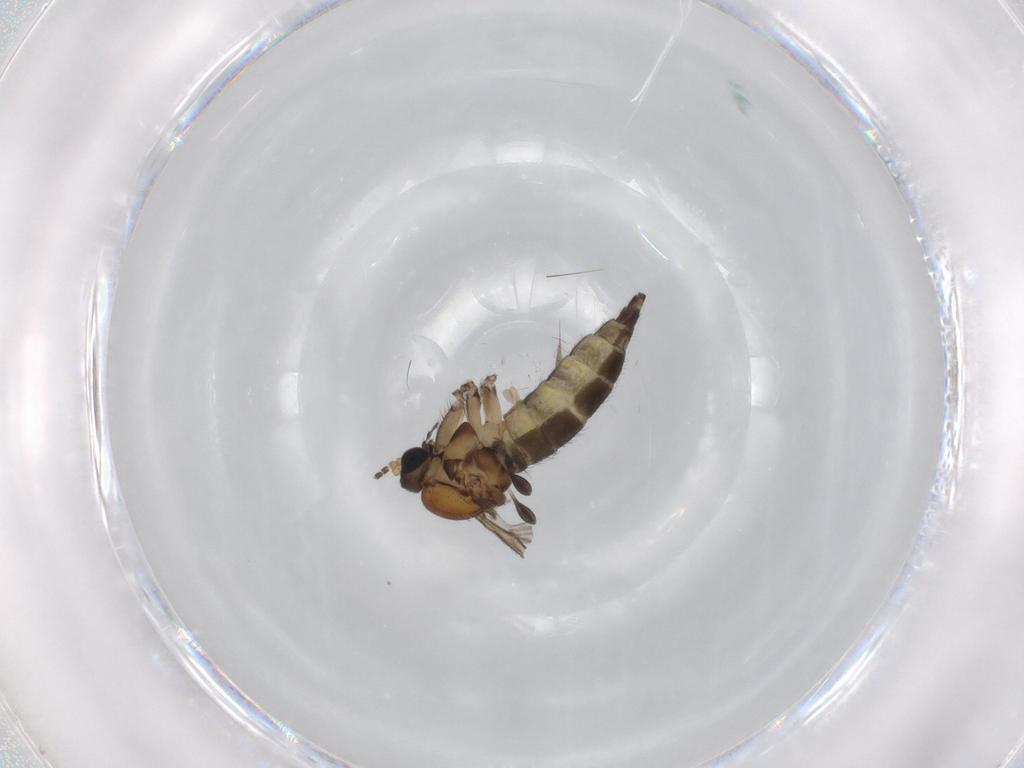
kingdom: Animalia
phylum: Arthropoda
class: Insecta
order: Diptera
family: Sciaridae
